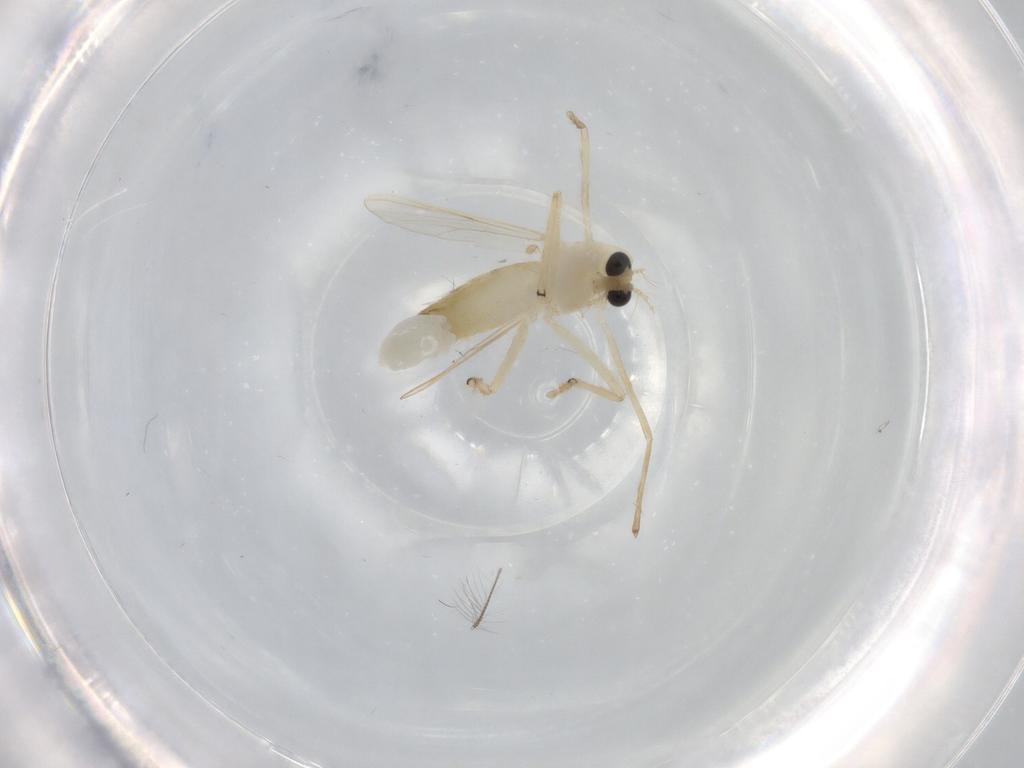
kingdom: Animalia
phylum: Arthropoda
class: Insecta
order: Diptera
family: Chironomidae
